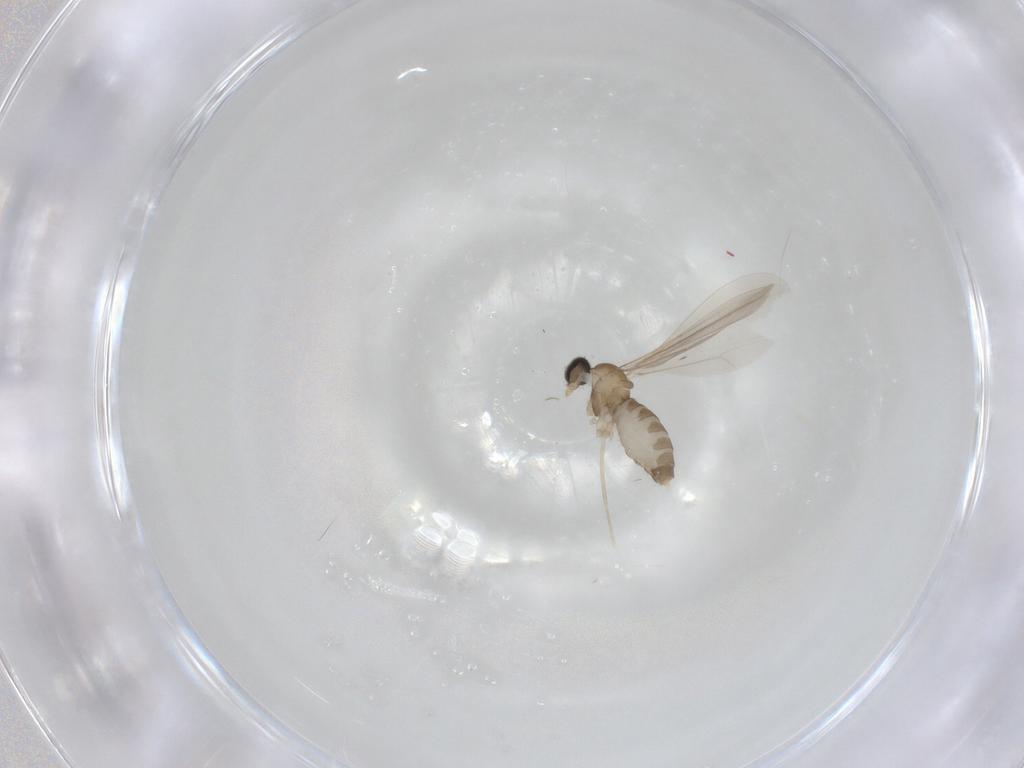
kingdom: Animalia
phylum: Arthropoda
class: Insecta
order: Diptera
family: Cecidomyiidae
